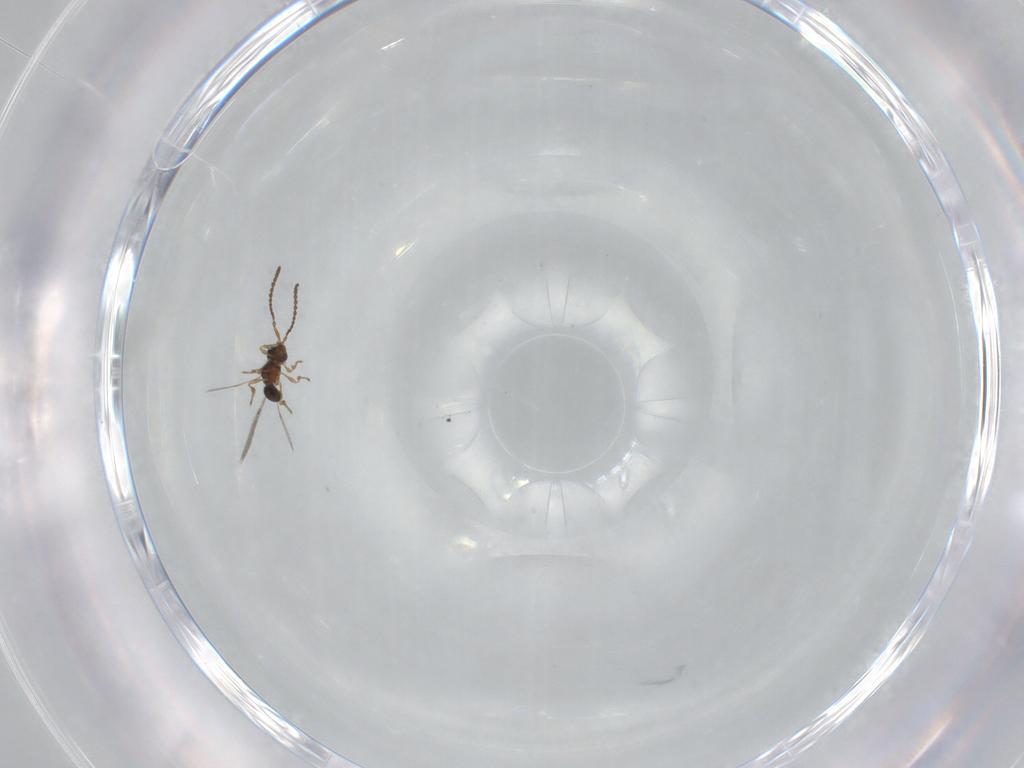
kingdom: Animalia
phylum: Arthropoda
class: Insecta
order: Hymenoptera
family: Diapriidae
